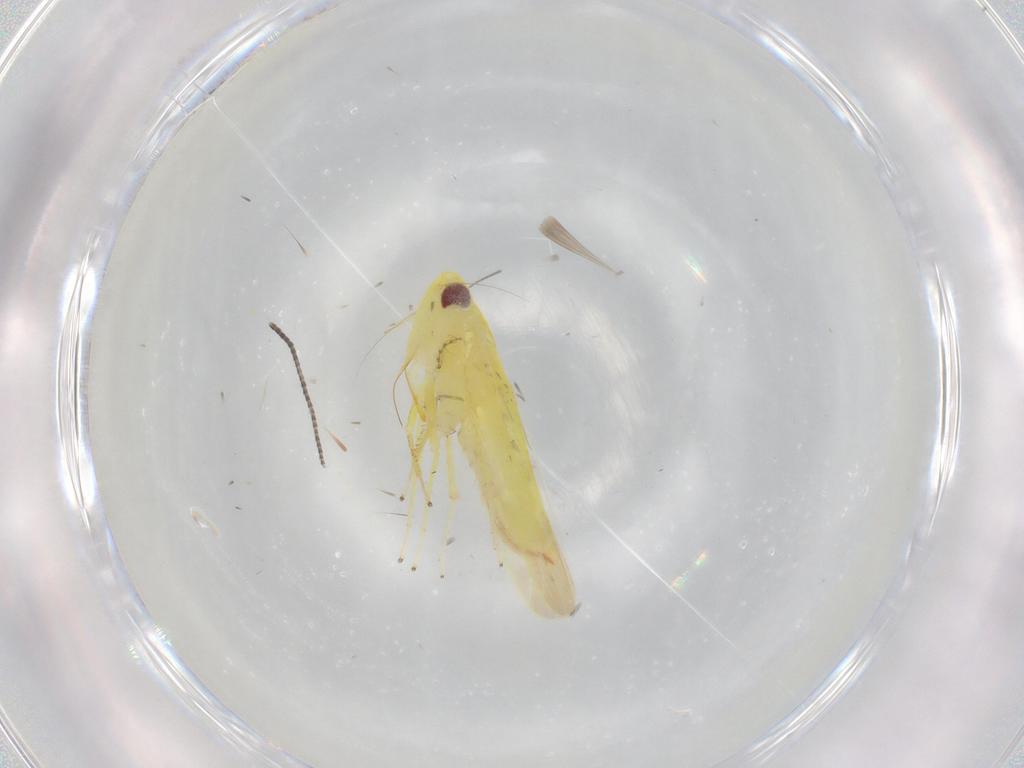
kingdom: Animalia
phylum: Arthropoda
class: Insecta
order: Hemiptera
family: Cicadellidae
